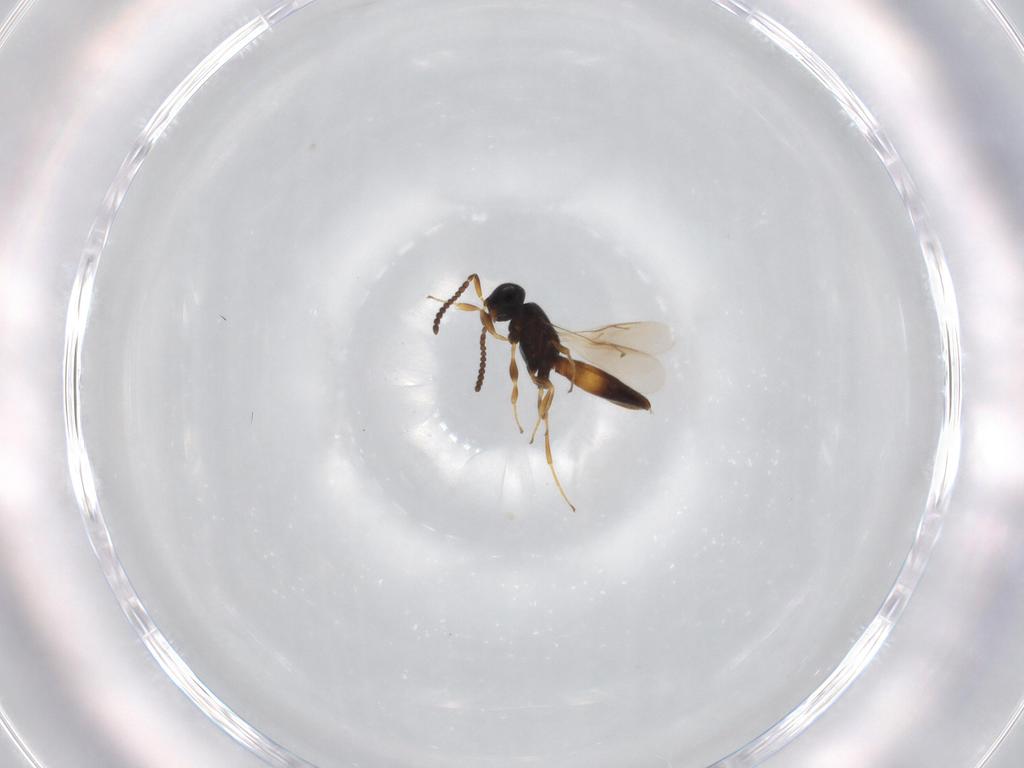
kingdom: Animalia
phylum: Arthropoda
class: Insecta
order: Hymenoptera
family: Scelionidae
